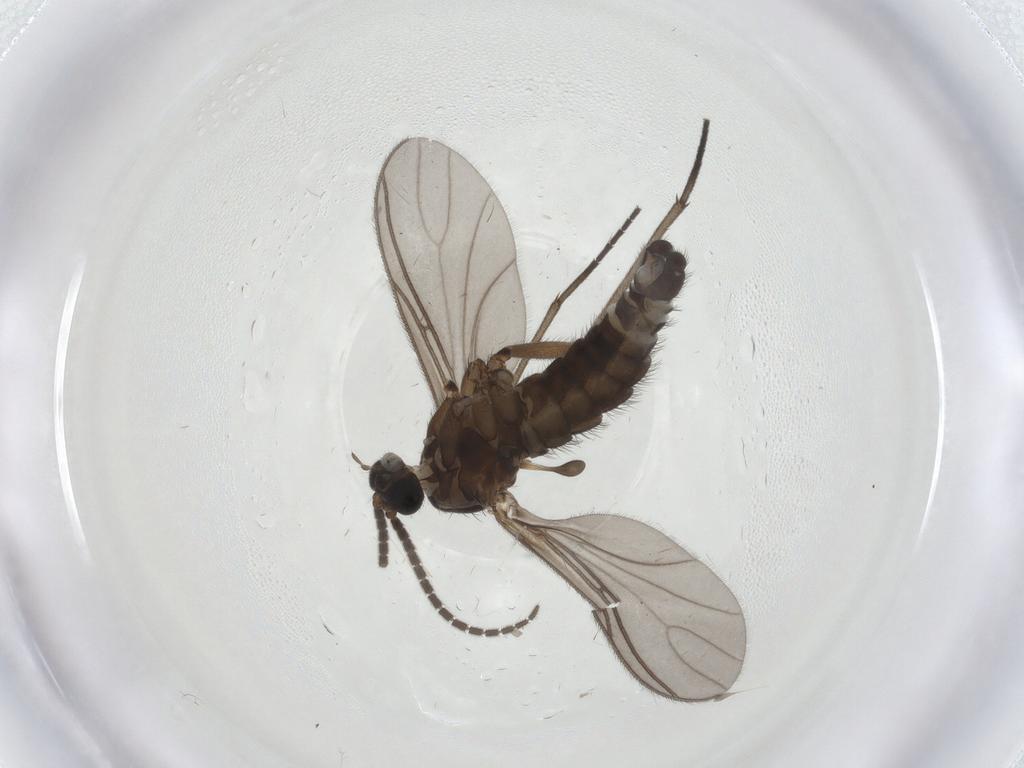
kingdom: Animalia
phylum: Arthropoda
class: Insecta
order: Diptera
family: Sciaridae
